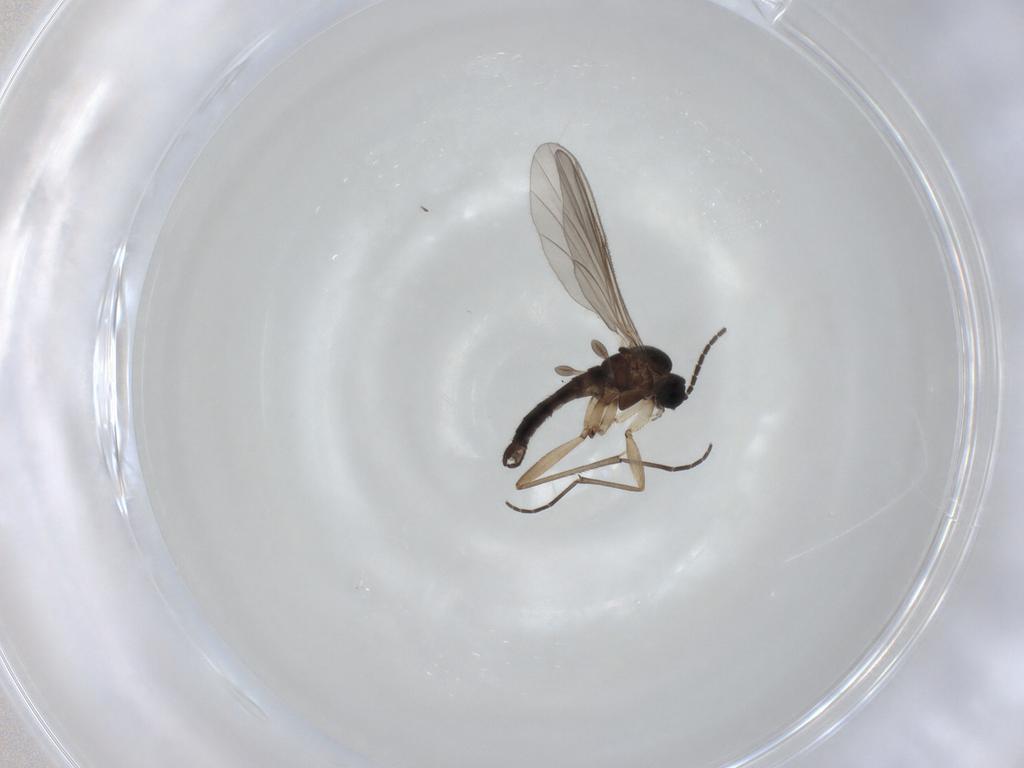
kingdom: Animalia
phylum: Arthropoda
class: Insecta
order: Diptera
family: Sciaridae
